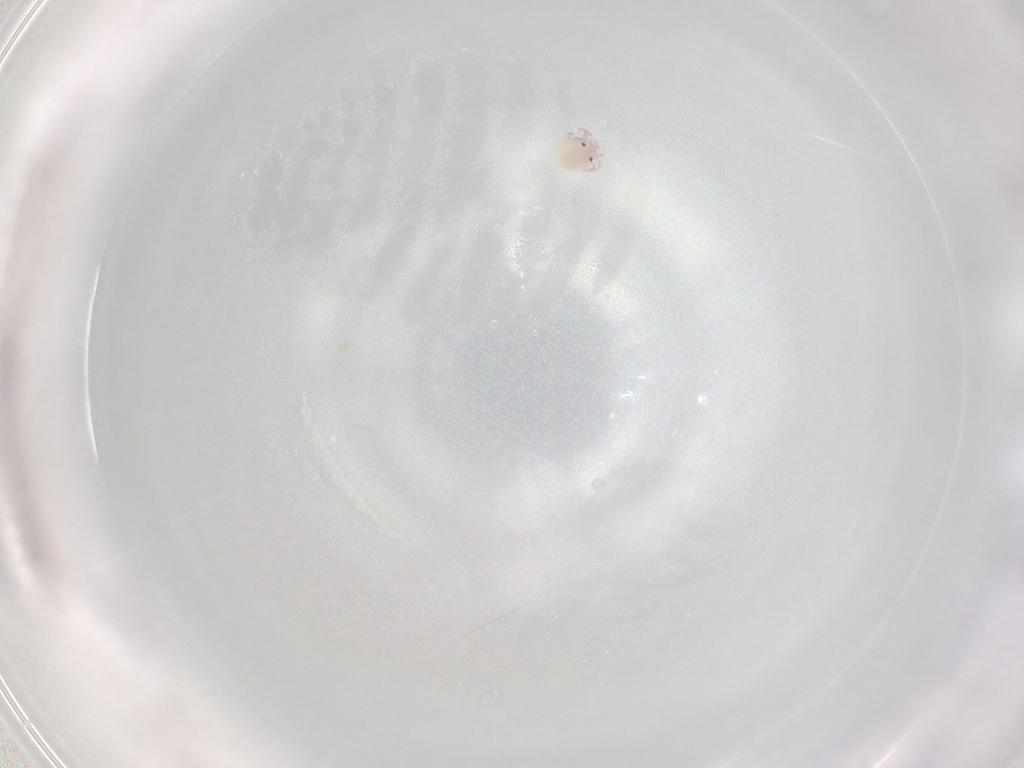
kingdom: Animalia
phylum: Arthropoda
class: Arachnida
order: Trombidiformes
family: Lebertiidae
